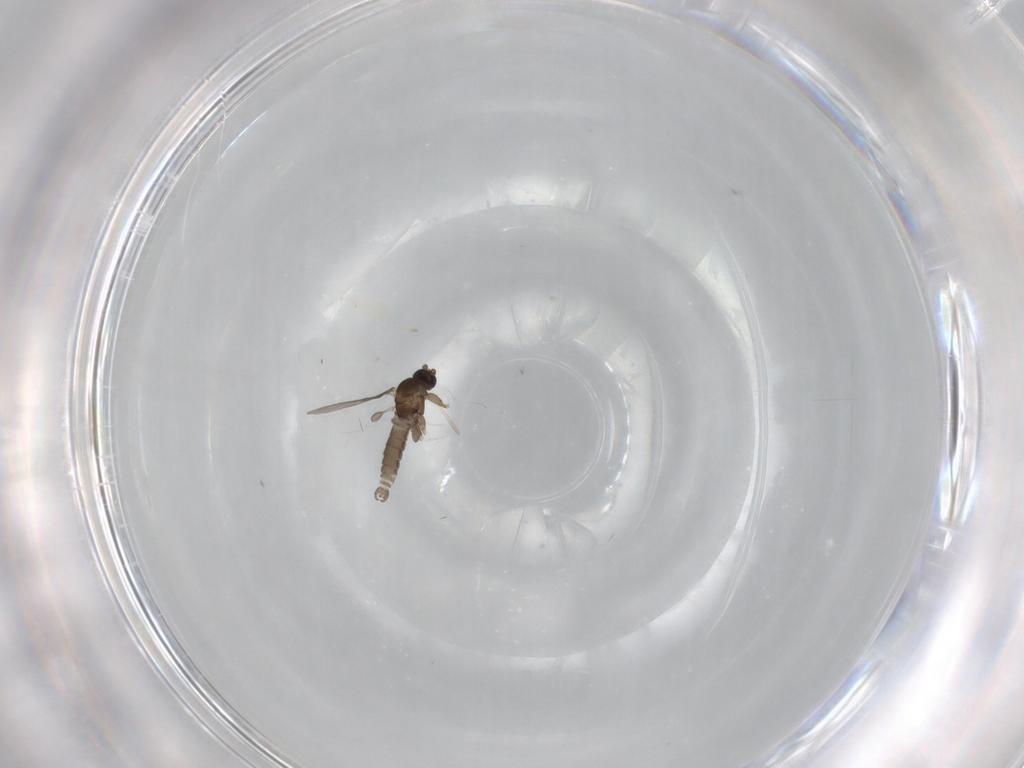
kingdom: Animalia
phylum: Arthropoda
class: Insecta
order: Diptera
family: Sciaridae
